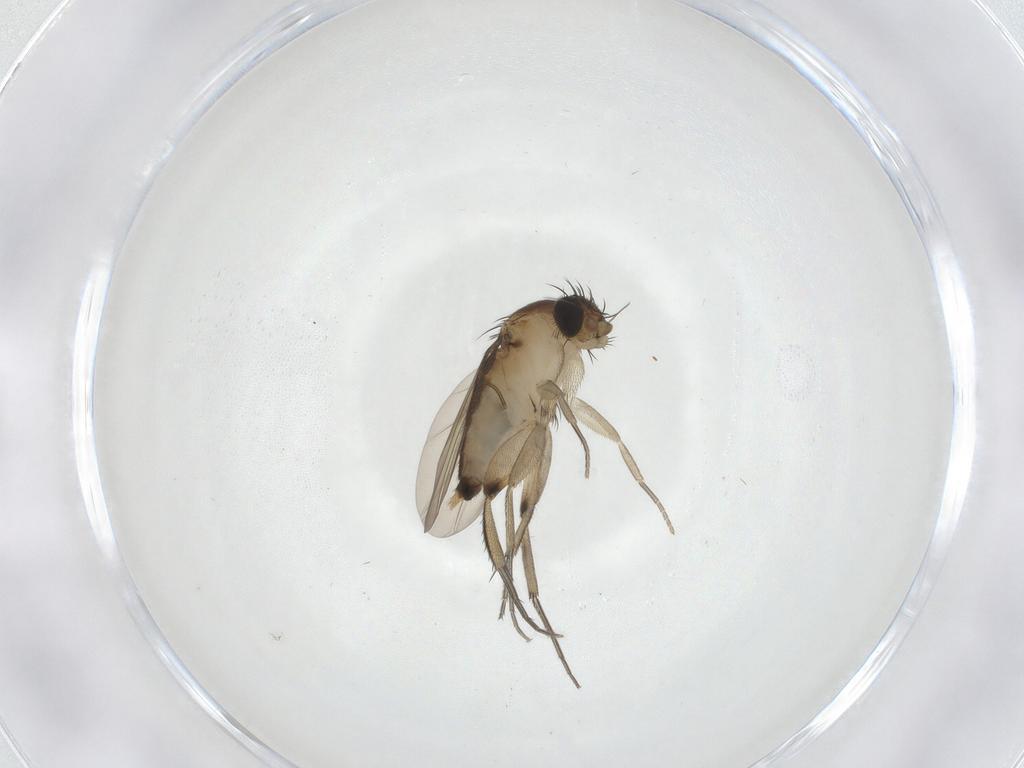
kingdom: Animalia
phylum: Arthropoda
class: Insecta
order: Diptera
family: Phoridae
